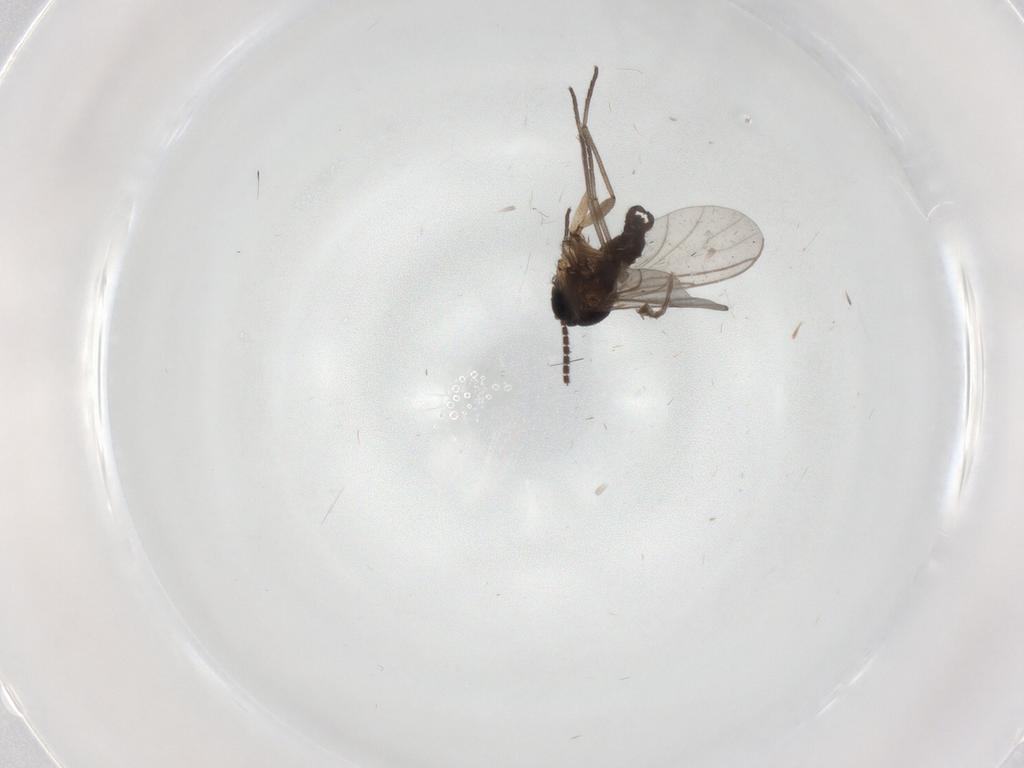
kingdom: Animalia
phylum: Arthropoda
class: Insecta
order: Diptera
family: Sciaridae
